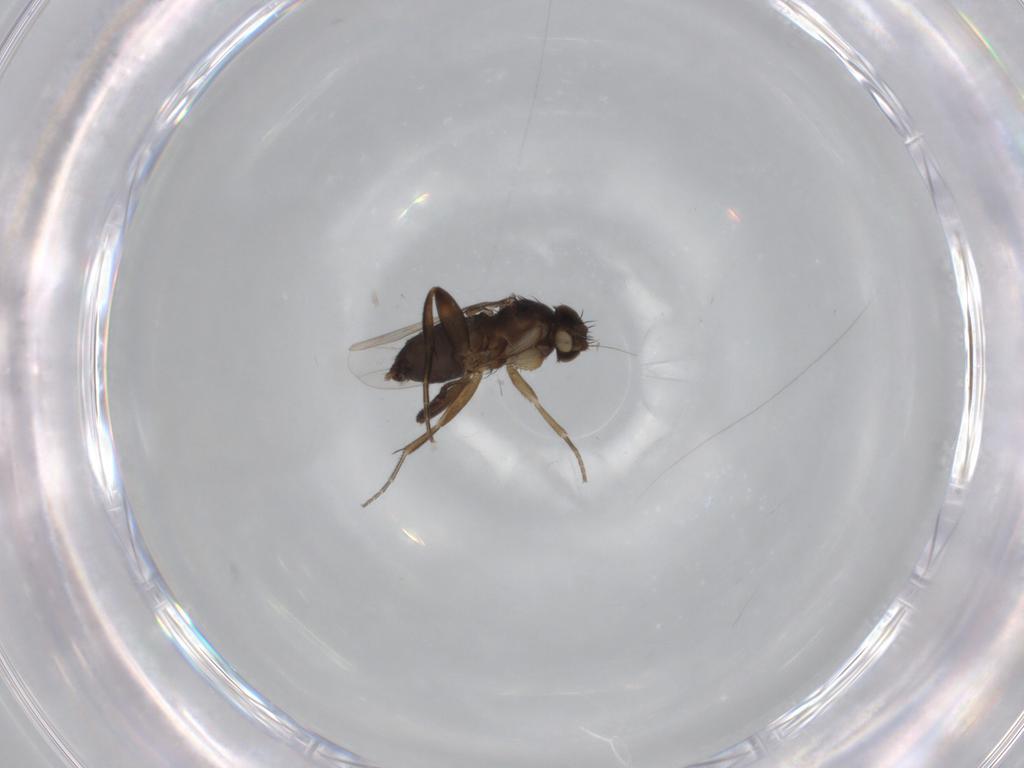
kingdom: Animalia
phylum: Arthropoda
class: Insecta
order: Diptera
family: Phoridae
